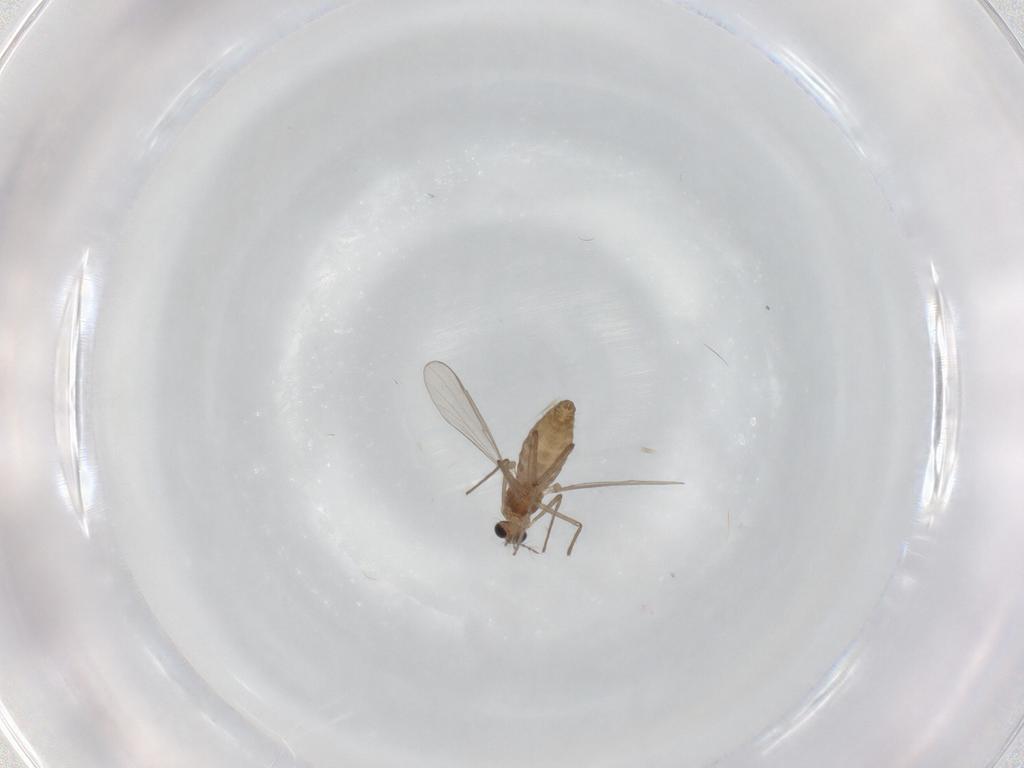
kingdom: Animalia
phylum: Arthropoda
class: Insecta
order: Diptera
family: Chironomidae
